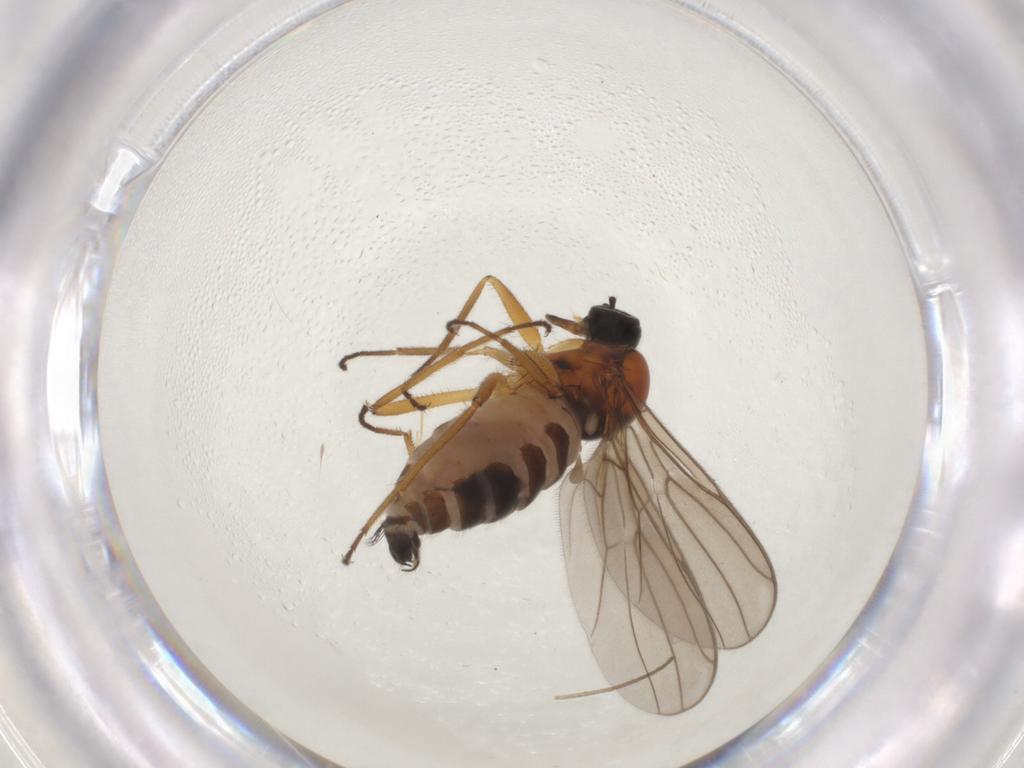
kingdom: Animalia
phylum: Arthropoda
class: Insecta
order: Diptera
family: Hybotidae
